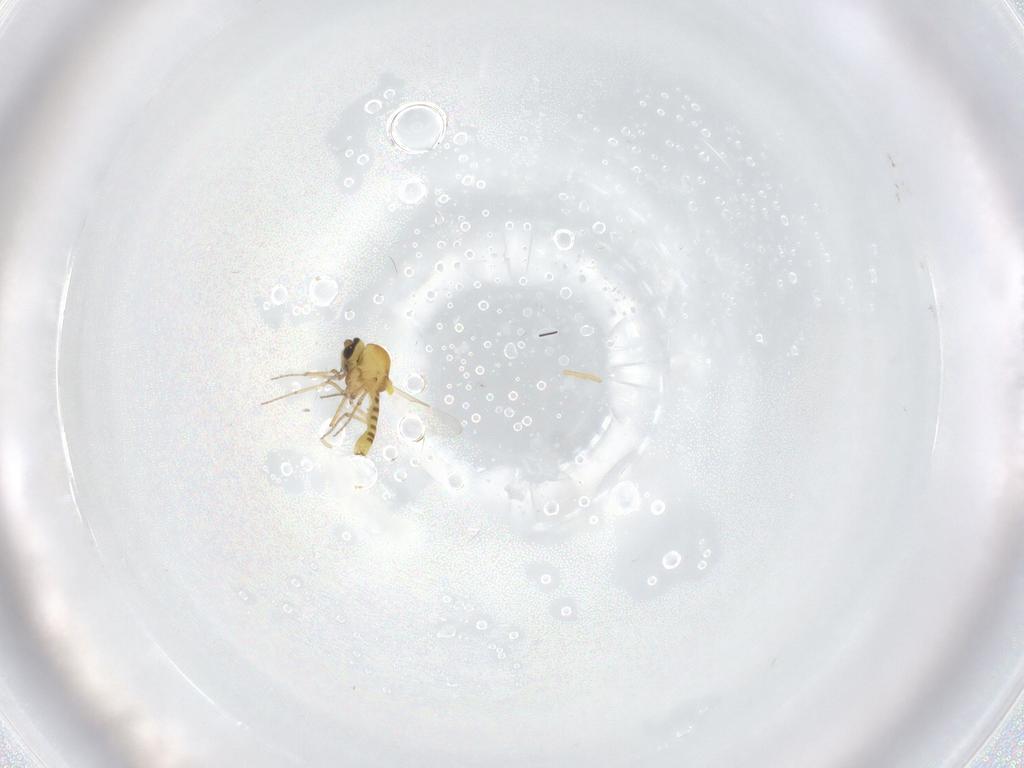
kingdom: Animalia
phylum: Arthropoda
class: Insecta
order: Diptera
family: Ceratopogonidae
